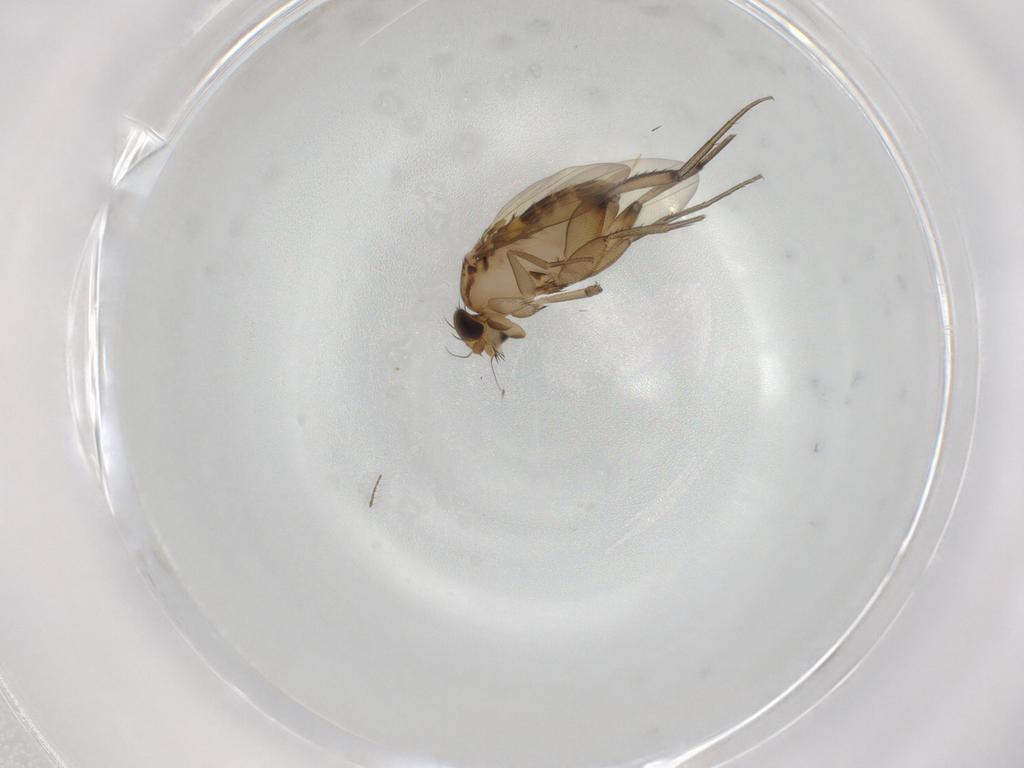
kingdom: Animalia
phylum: Arthropoda
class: Insecta
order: Diptera
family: Phoridae
